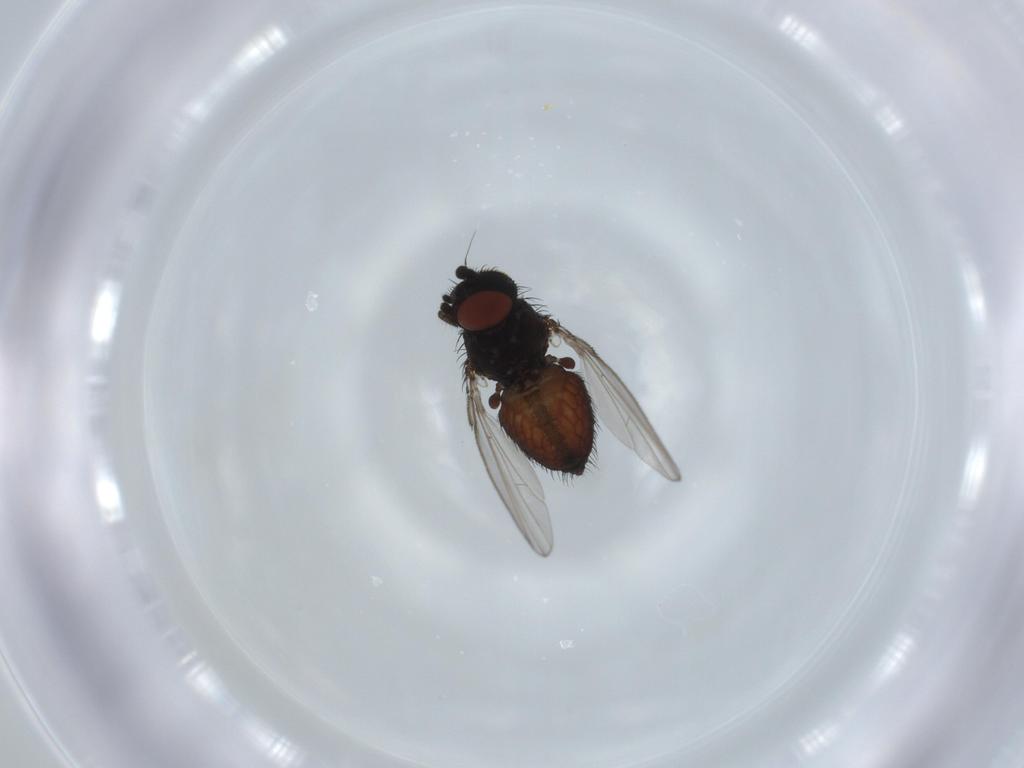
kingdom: Animalia
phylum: Arthropoda
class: Insecta
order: Diptera
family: Milichiidae
